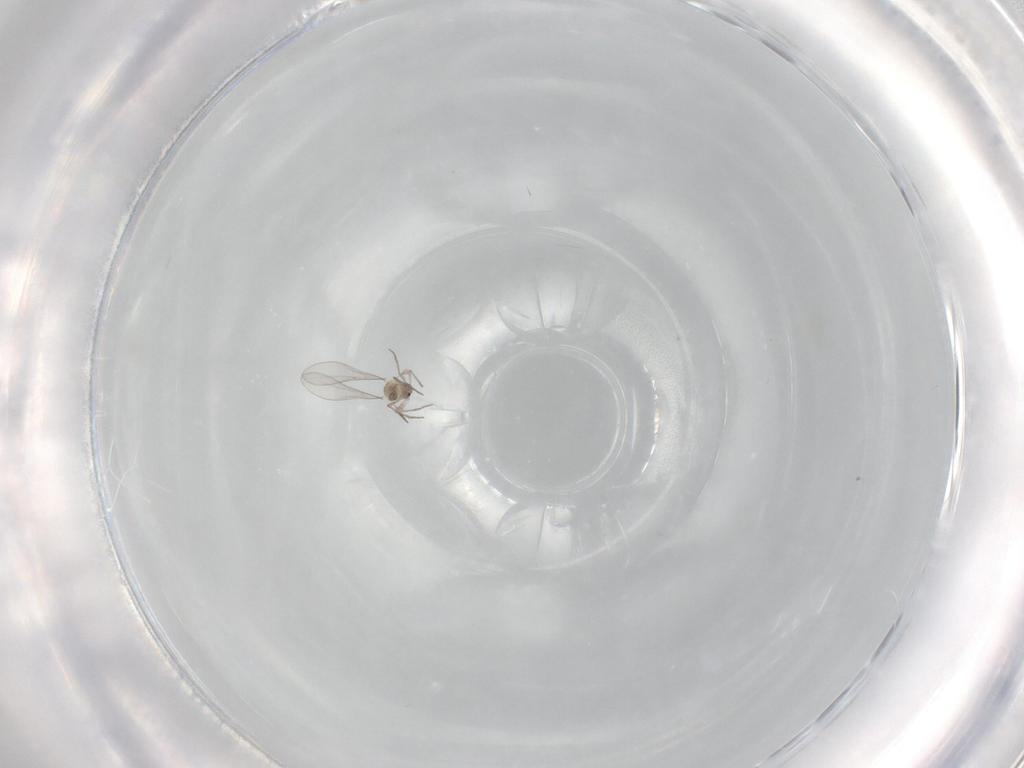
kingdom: Animalia
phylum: Arthropoda
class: Insecta
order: Diptera
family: Cecidomyiidae
